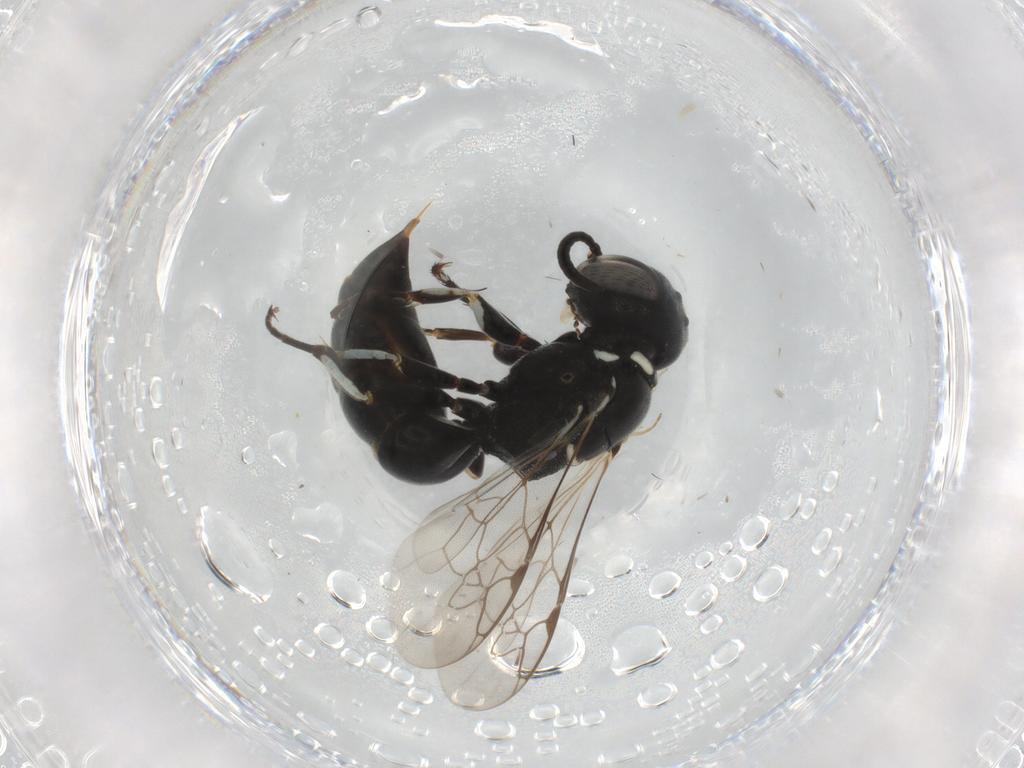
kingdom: Animalia
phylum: Arthropoda
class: Insecta
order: Hymenoptera
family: Crabronidae
